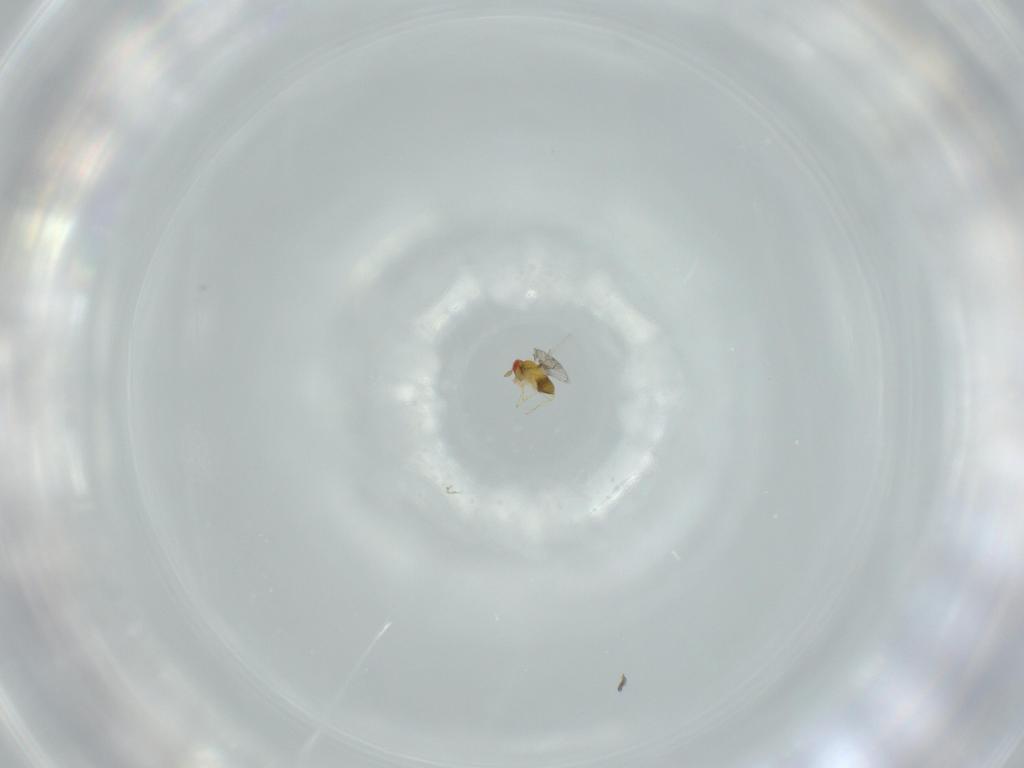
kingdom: Animalia
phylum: Arthropoda
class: Insecta
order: Hymenoptera
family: Trichogrammatidae
